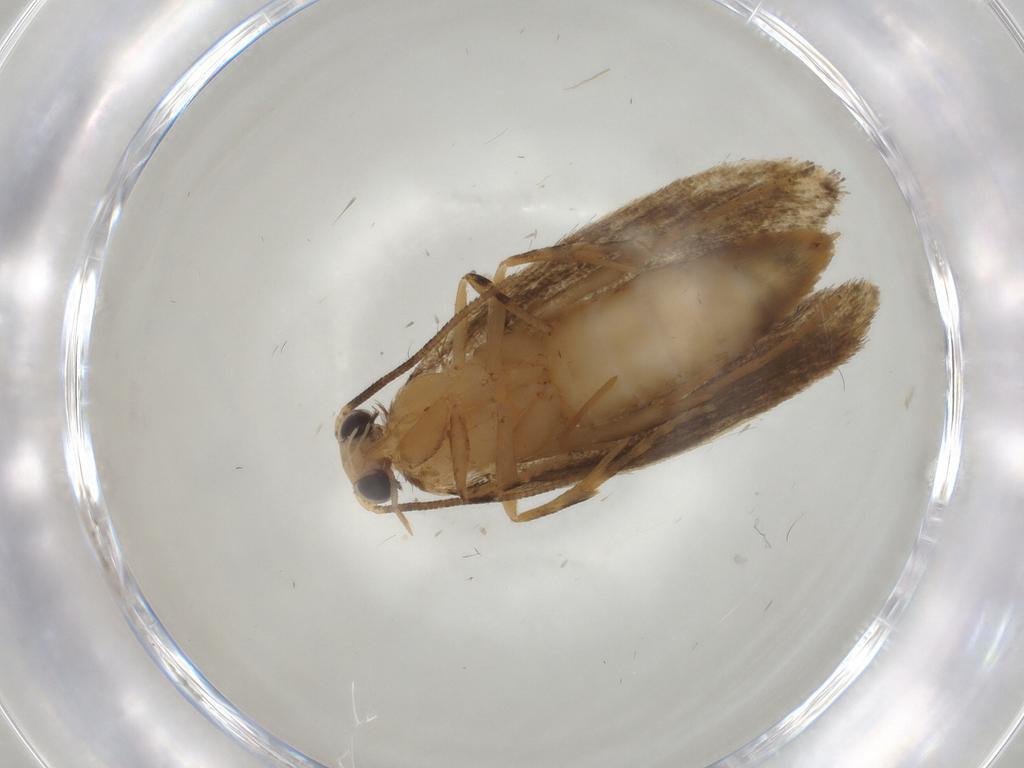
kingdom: Animalia
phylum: Arthropoda
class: Insecta
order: Lepidoptera
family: Tineidae
